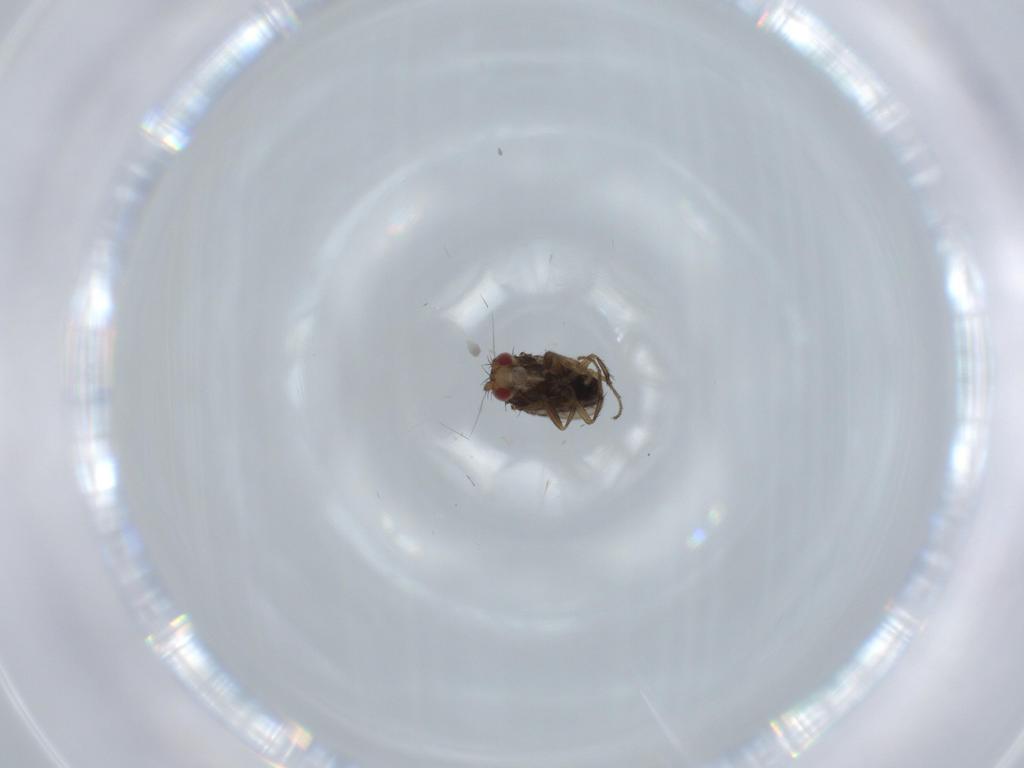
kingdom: Animalia
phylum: Arthropoda
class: Insecta
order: Diptera
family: Sphaeroceridae
